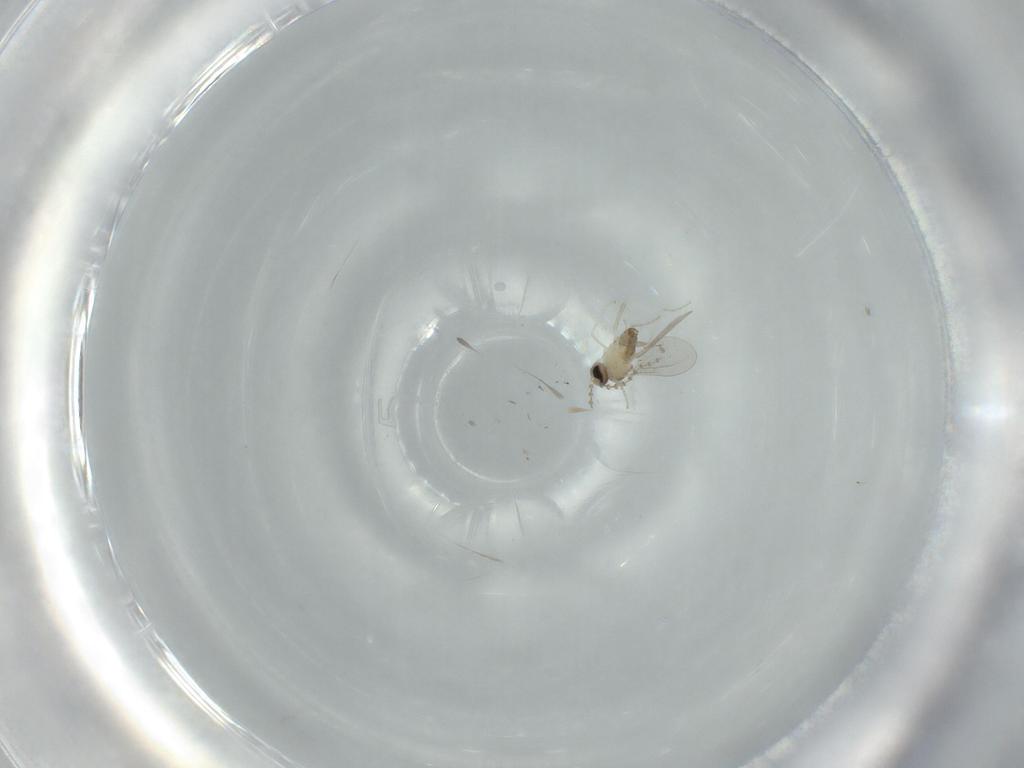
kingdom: Animalia
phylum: Arthropoda
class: Insecta
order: Diptera
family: Cecidomyiidae
